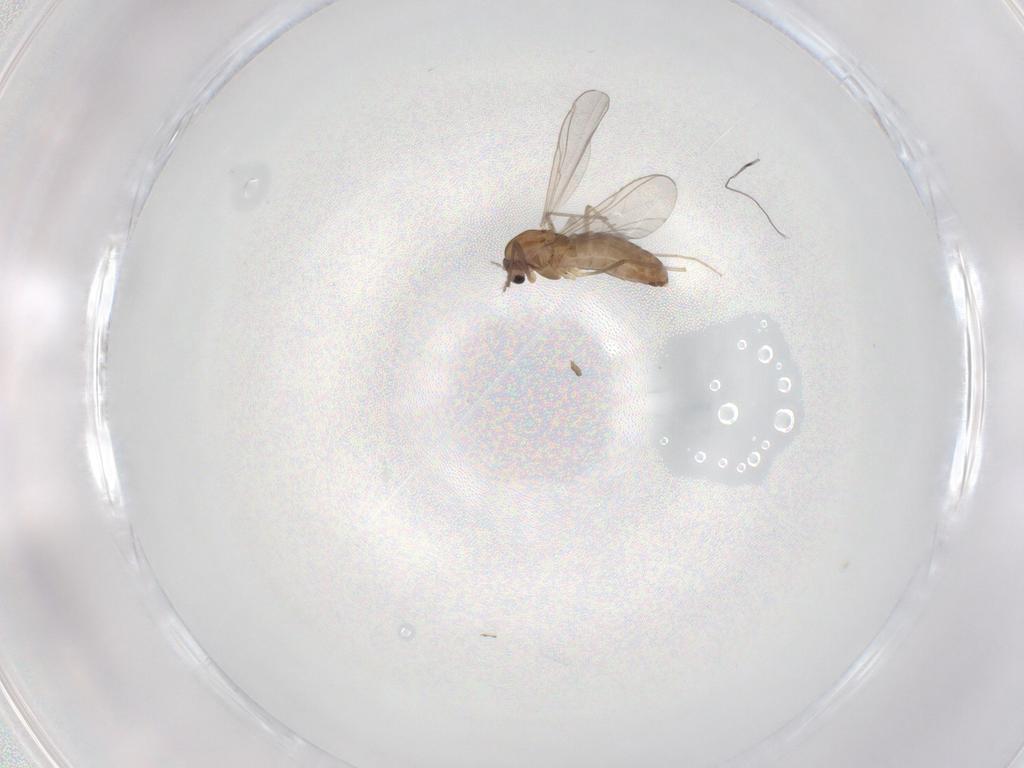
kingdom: Animalia
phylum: Arthropoda
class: Insecta
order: Diptera
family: Chironomidae
